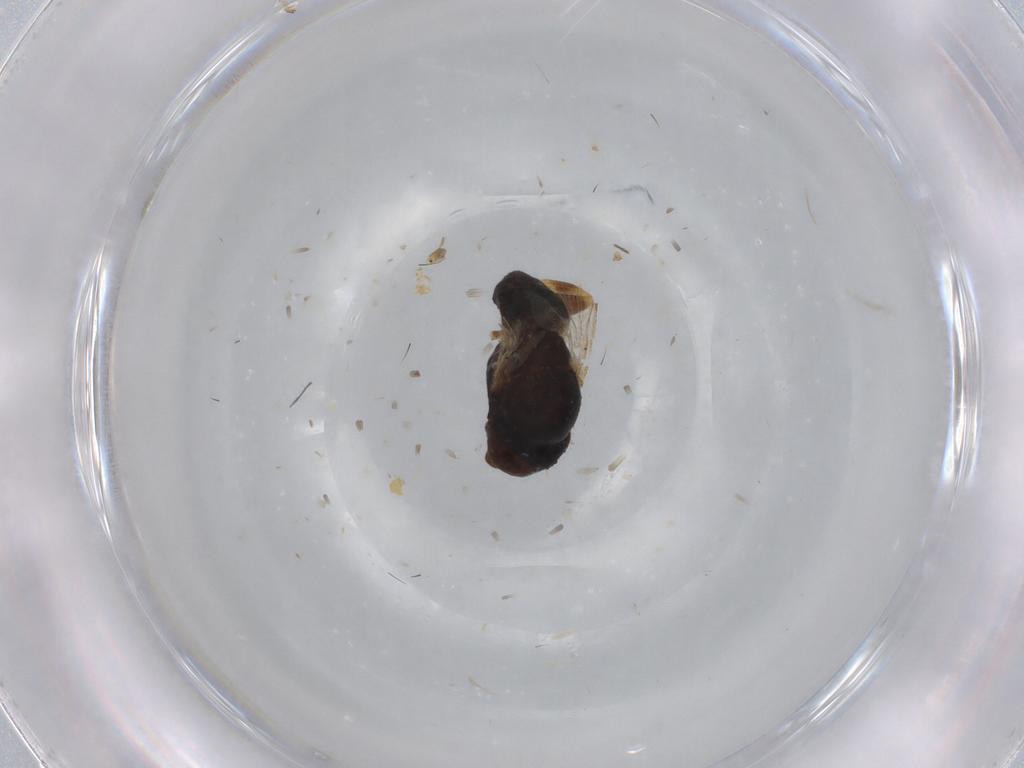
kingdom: Animalia
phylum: Arthropoda
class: Insecta
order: Diptera
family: Milichiidae
